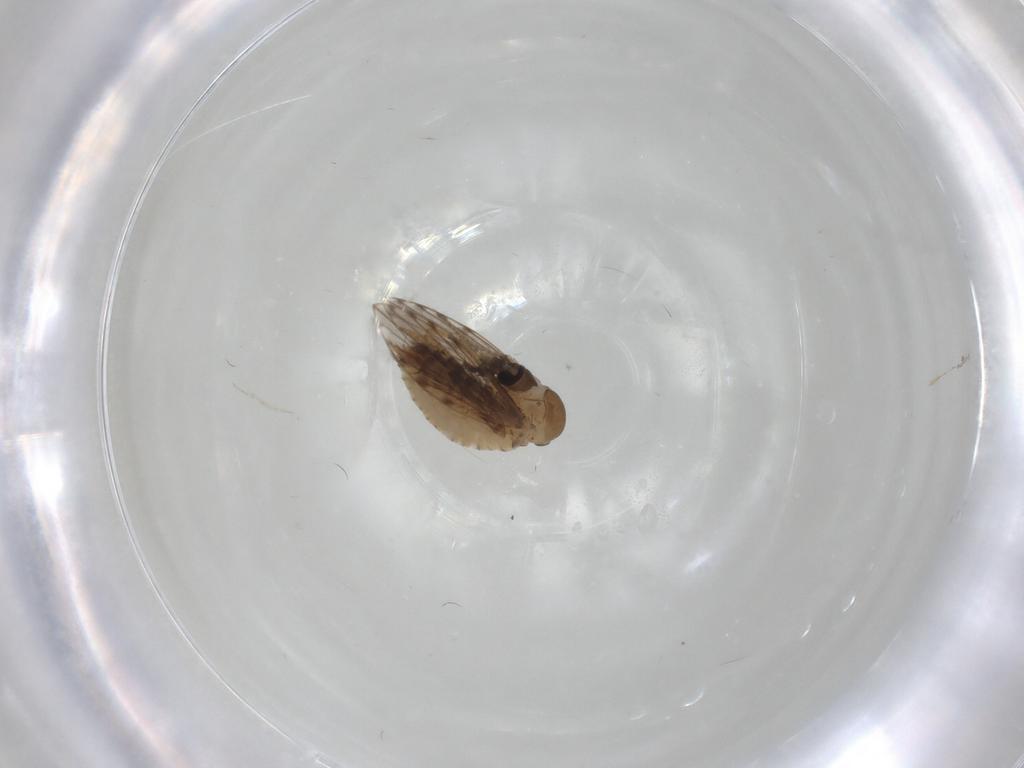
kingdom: Animalia
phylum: Arthropoda
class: Insecta
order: Diptera
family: Psychodidae
